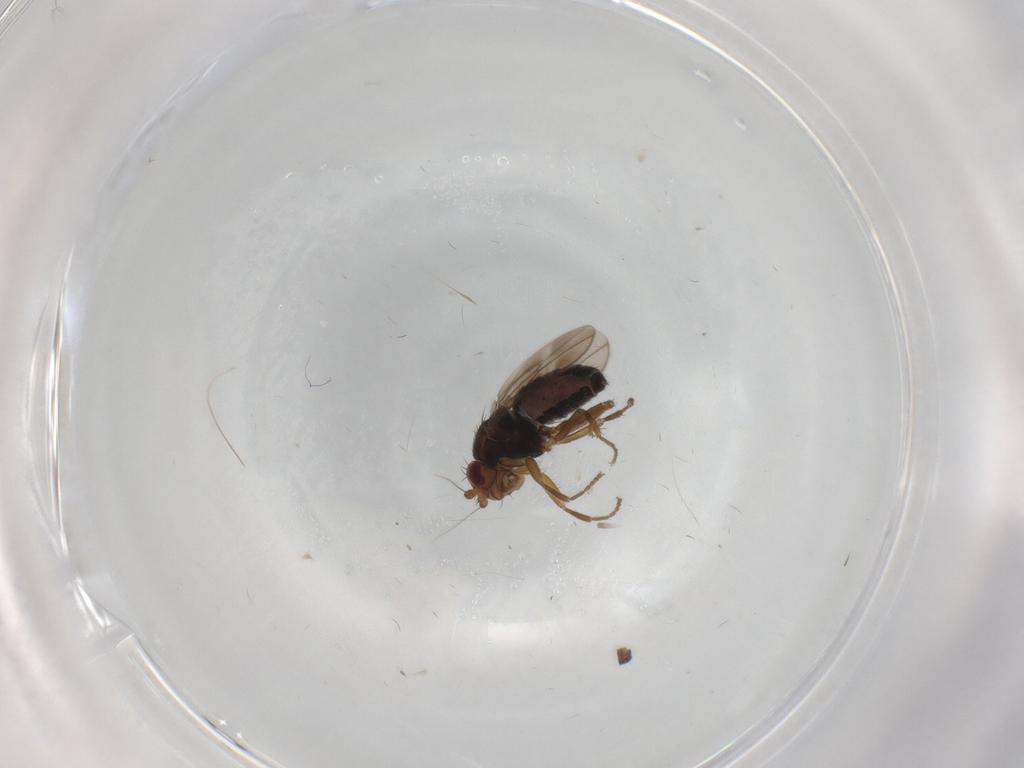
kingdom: Animalia
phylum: Arthropoda
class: Insecta
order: Diptera
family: Sphaeroceridae
